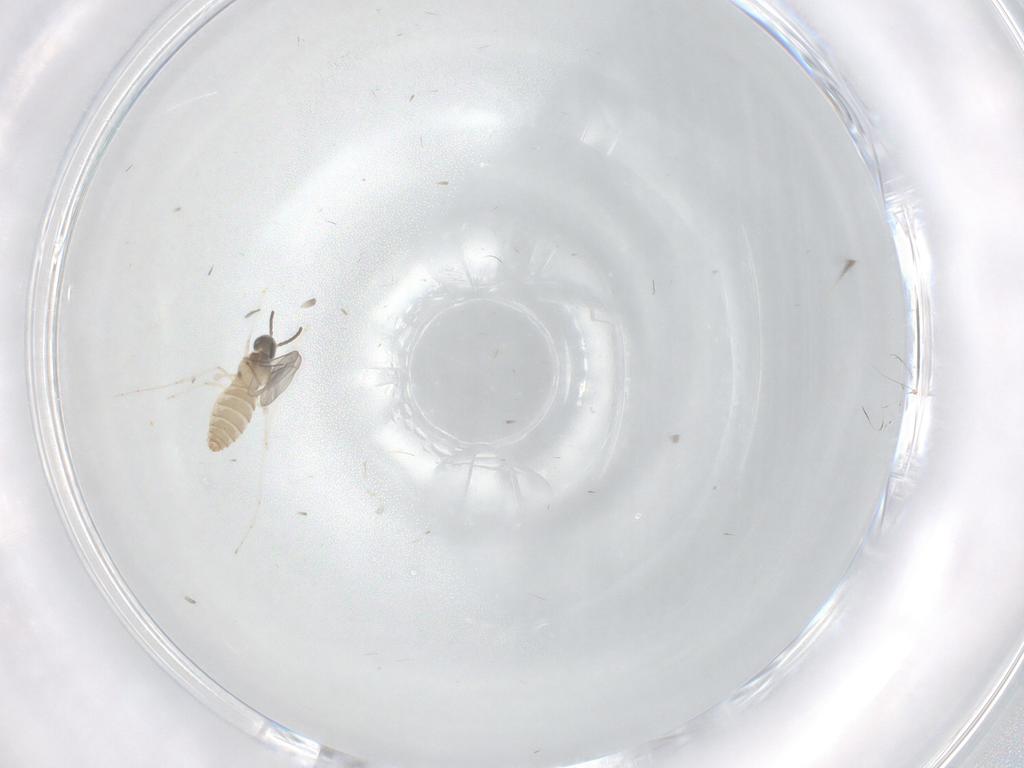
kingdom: Animalia
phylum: Arthropoda
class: Insecta
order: Diptera
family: Cecidomyiidae
